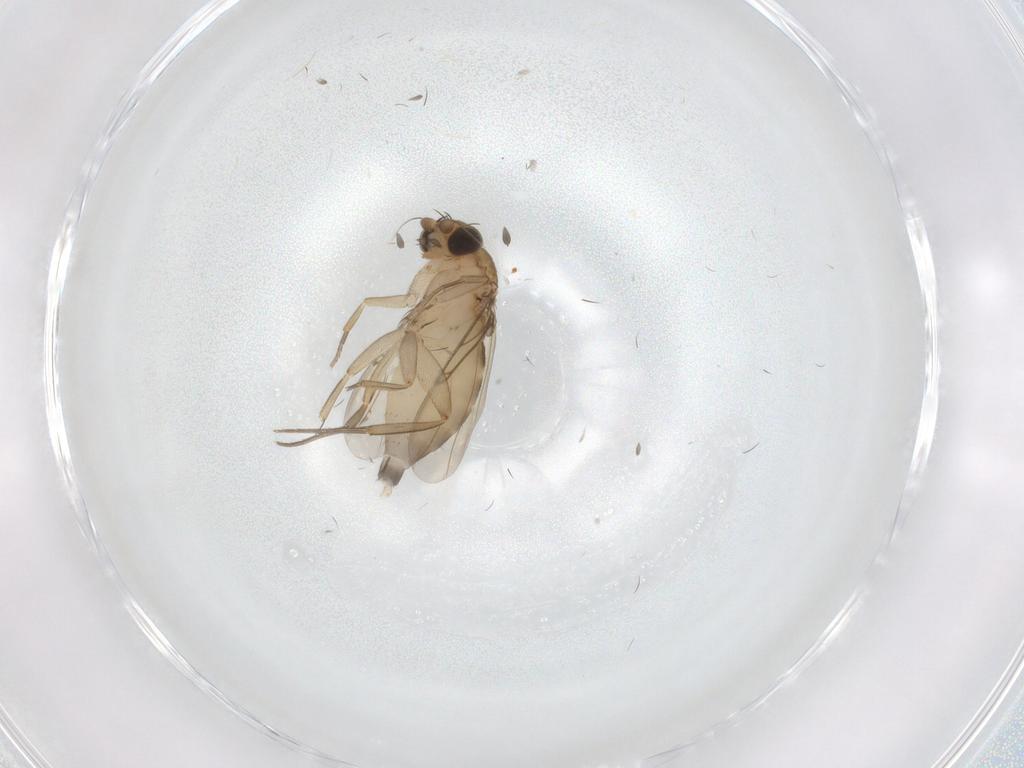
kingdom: Animalia
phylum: Arthropoda
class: Insecta
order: Diptera
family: Phoridae
